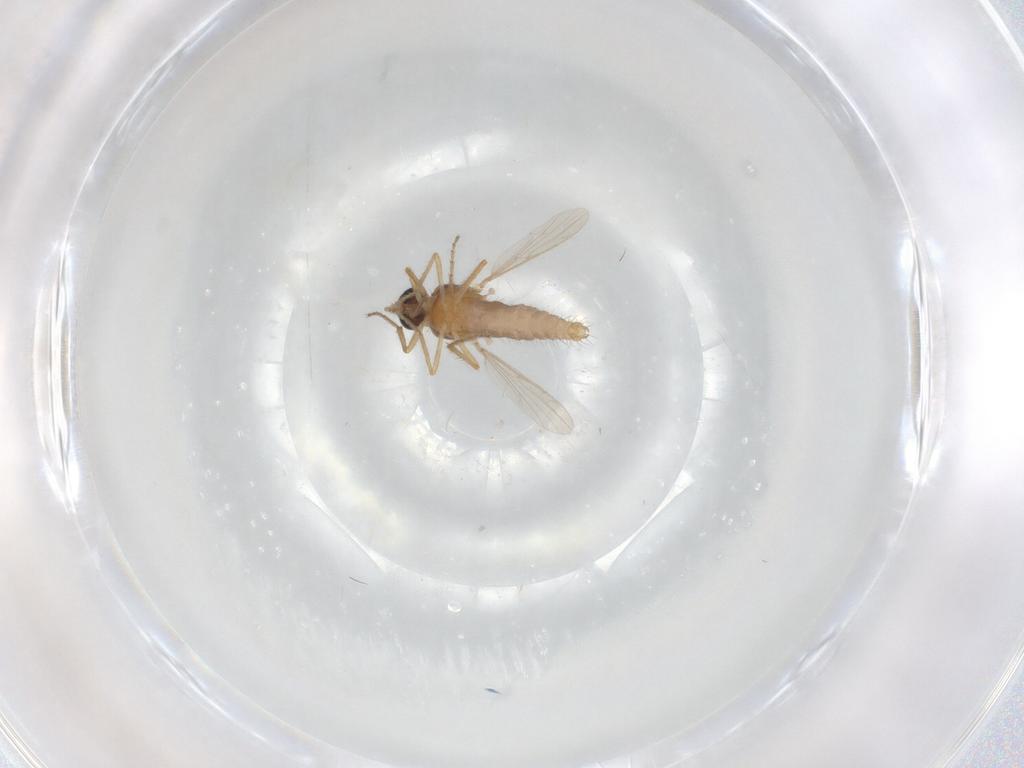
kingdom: Animalia
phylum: Arthropoda
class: Insecta
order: Diptera
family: Ceratopogonidae
